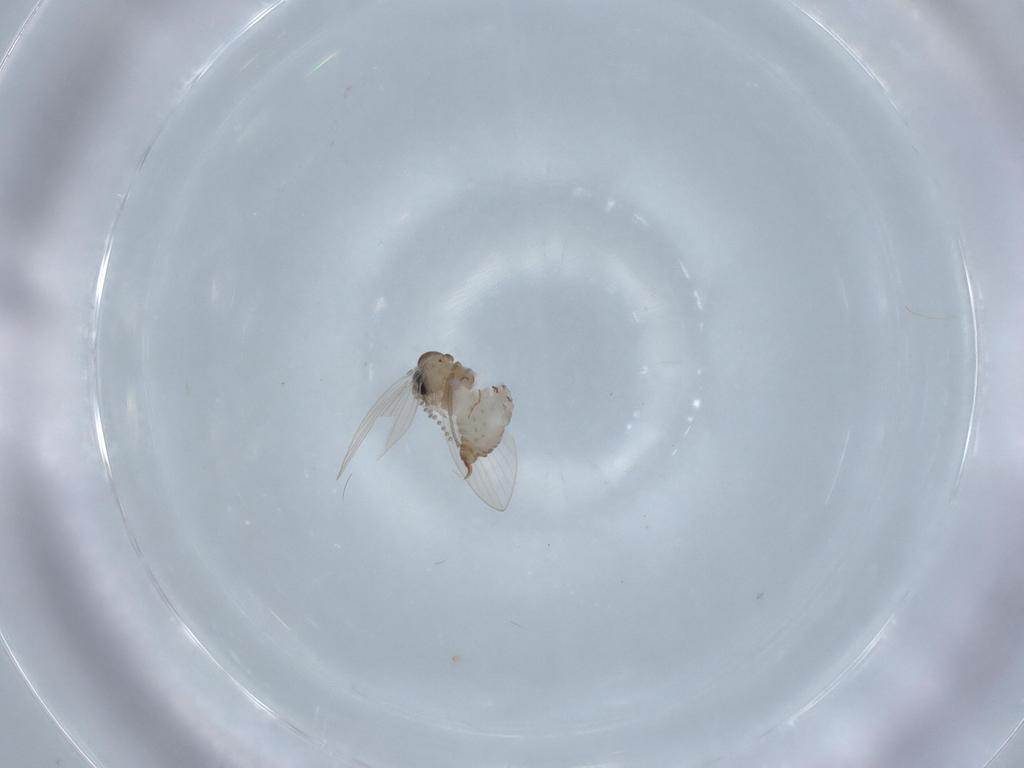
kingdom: Animalia
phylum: Arthropoda
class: Insecta
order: Diptera
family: Psychodidae
